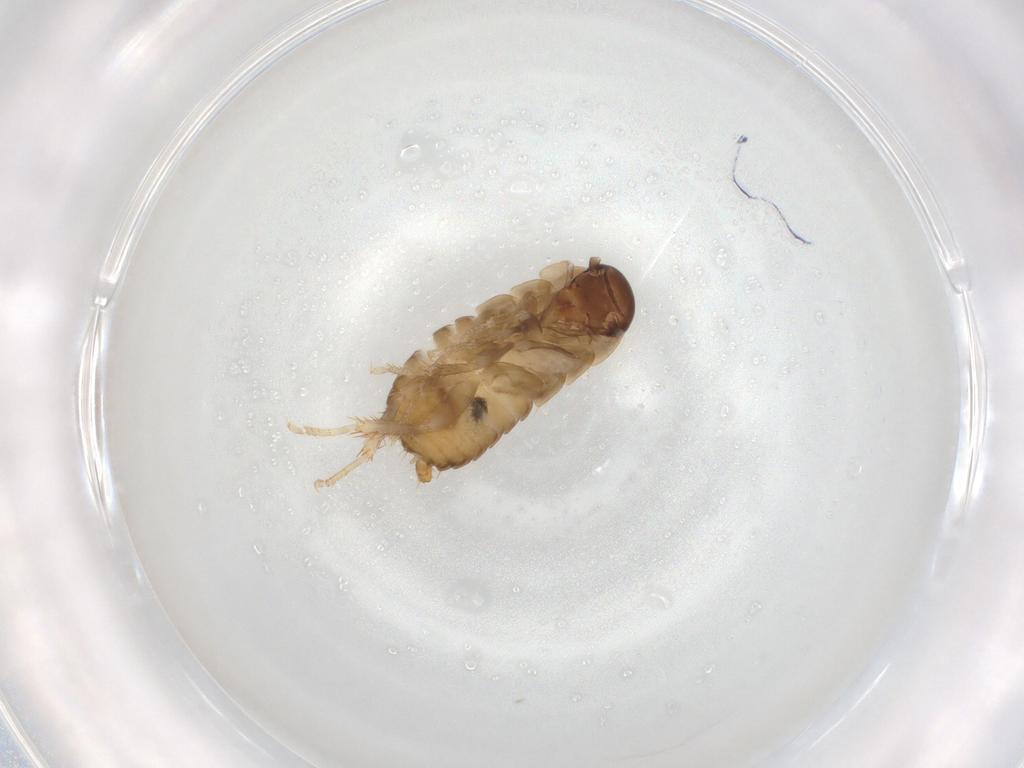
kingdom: Animalia
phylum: Arthropoda
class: Insecta
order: Blattodea
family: Ectobiidae
